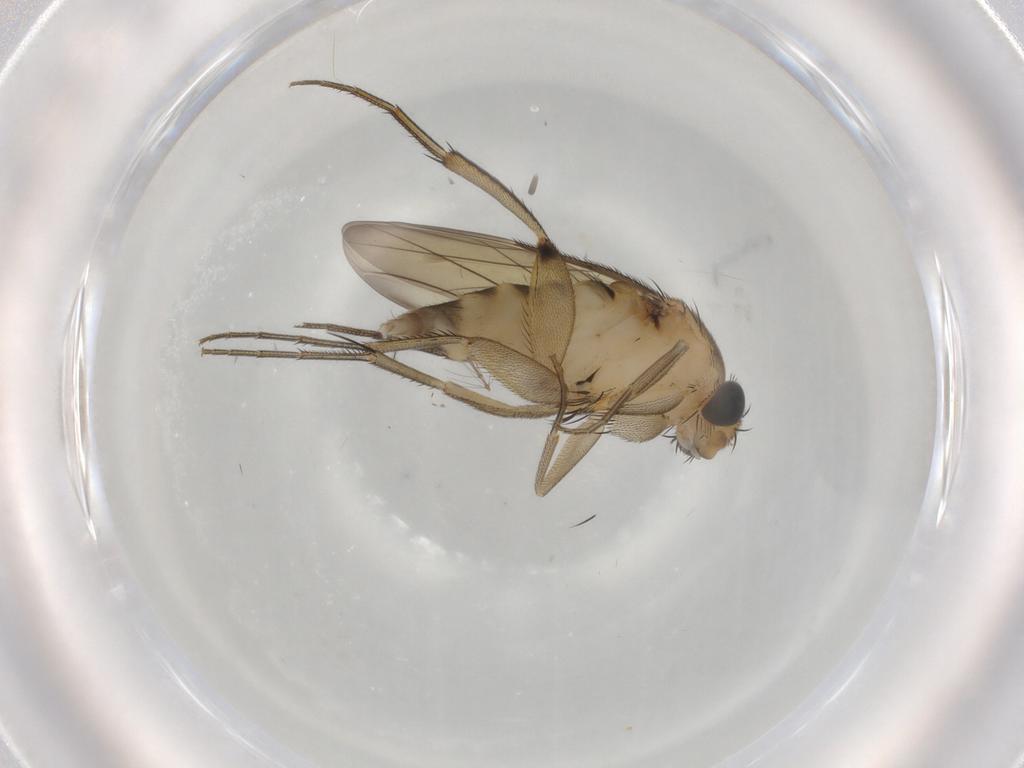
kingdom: Animalia
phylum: Arthropoda
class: Insecta
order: Diptera
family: Phoridae
